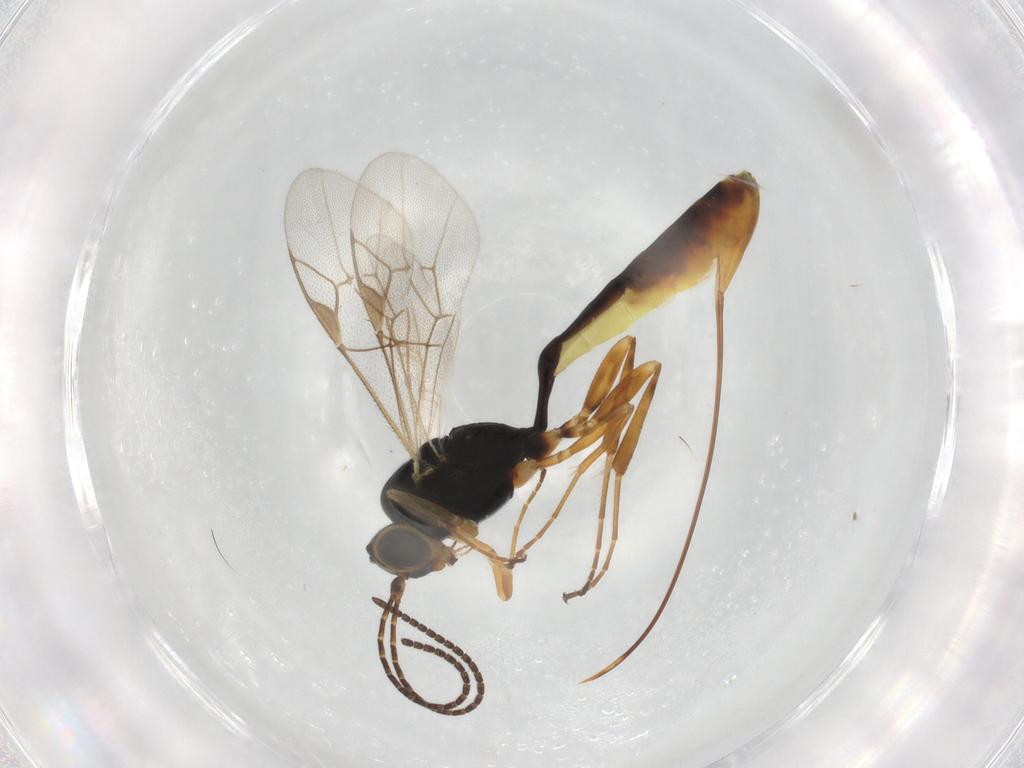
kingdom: Animalia
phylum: Arthropoda
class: Insecta
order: Hymenoptera
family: Ichneumonidae
